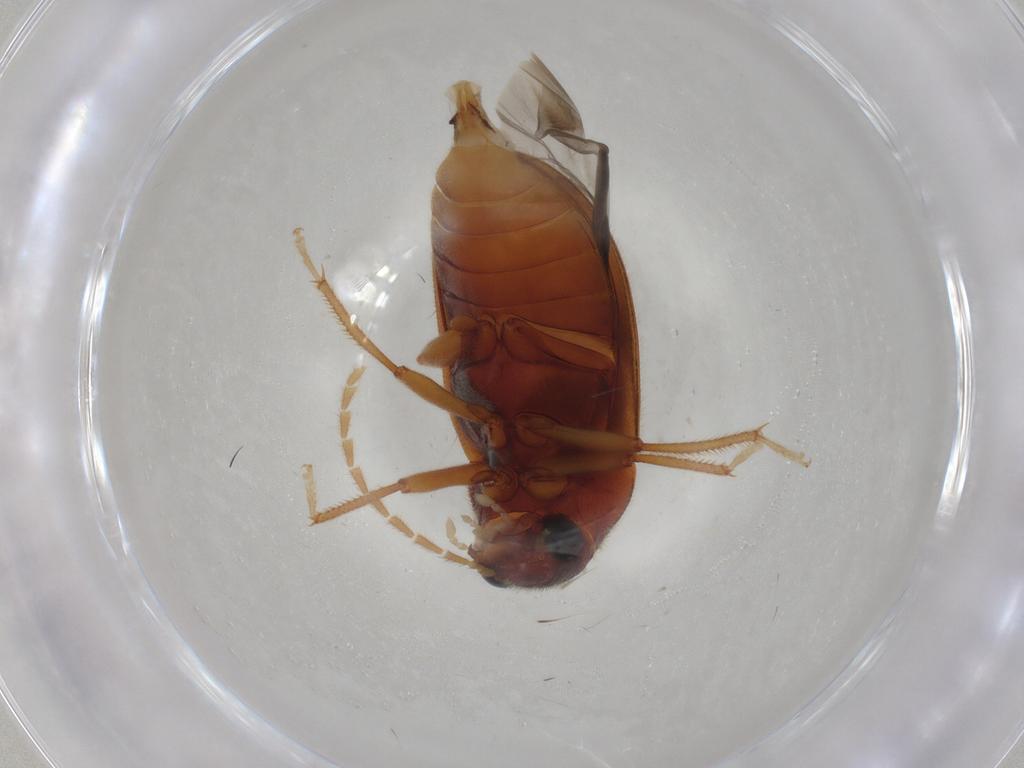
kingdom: Animalia
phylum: Arthropoda
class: Insecta
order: Coleoptera
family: Ptilodactylidae
